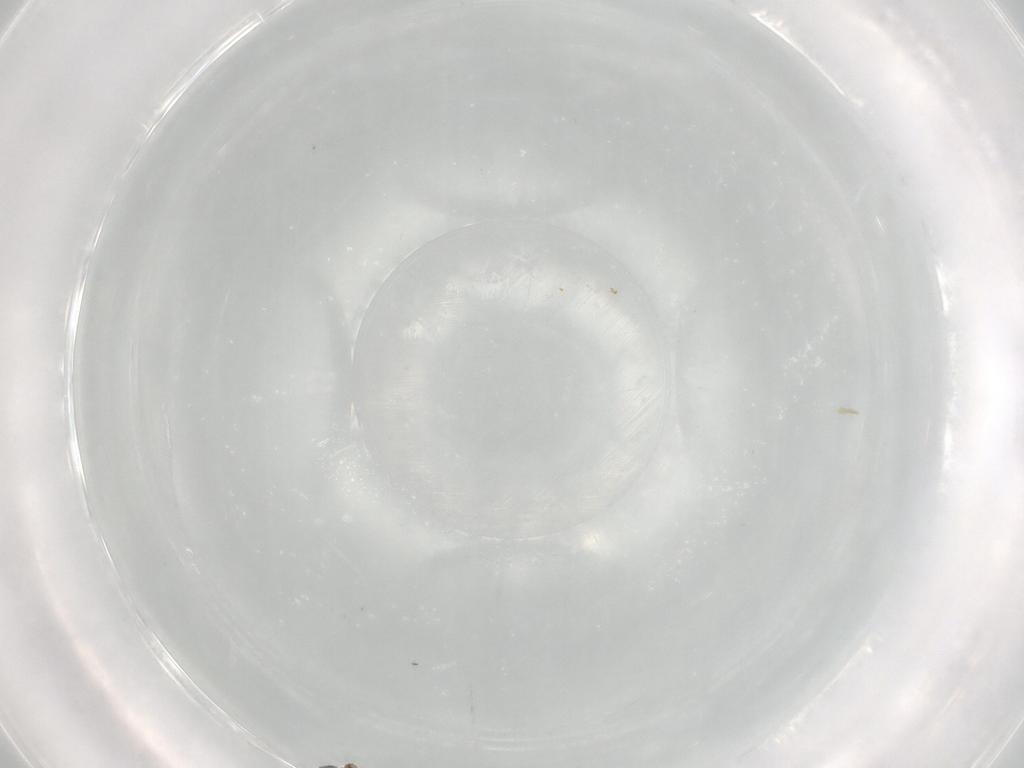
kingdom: Animalia
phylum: Arthropoda
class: Insecta
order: Diptera
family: Cecidomyiidae
